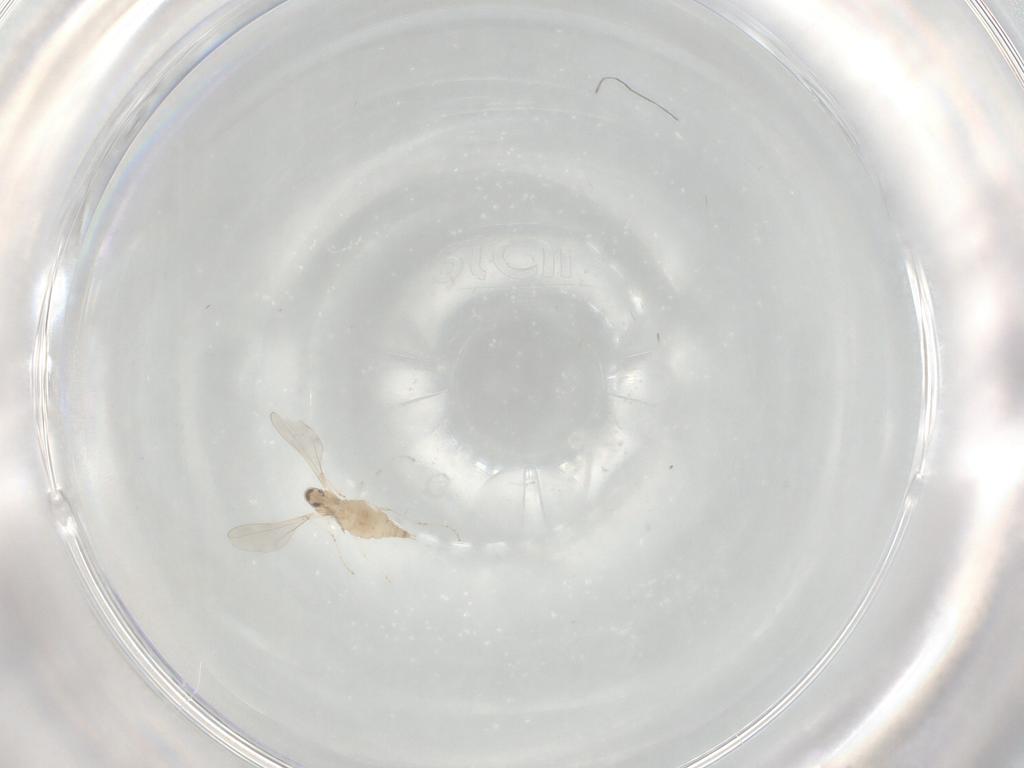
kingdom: Animalia
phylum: Arthropoda
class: Insecta
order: Diptera
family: Cecidomyiidae
